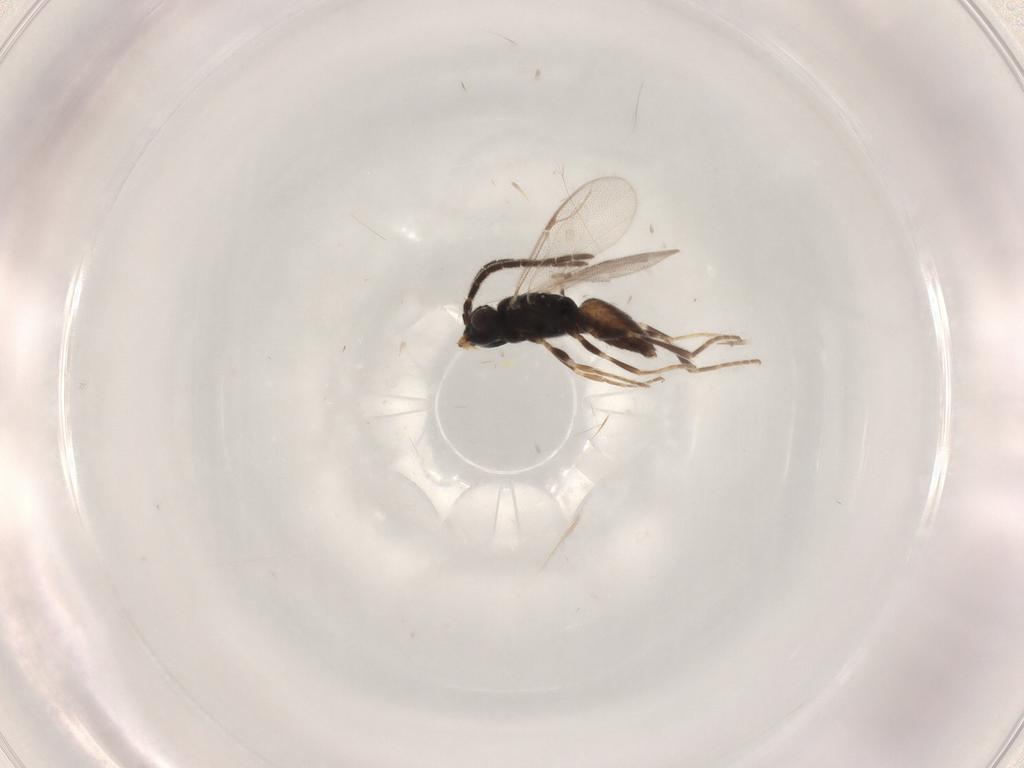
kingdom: Animalia
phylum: Arthropoda
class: Insecta
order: Hymenoptera
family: Dryinidae
